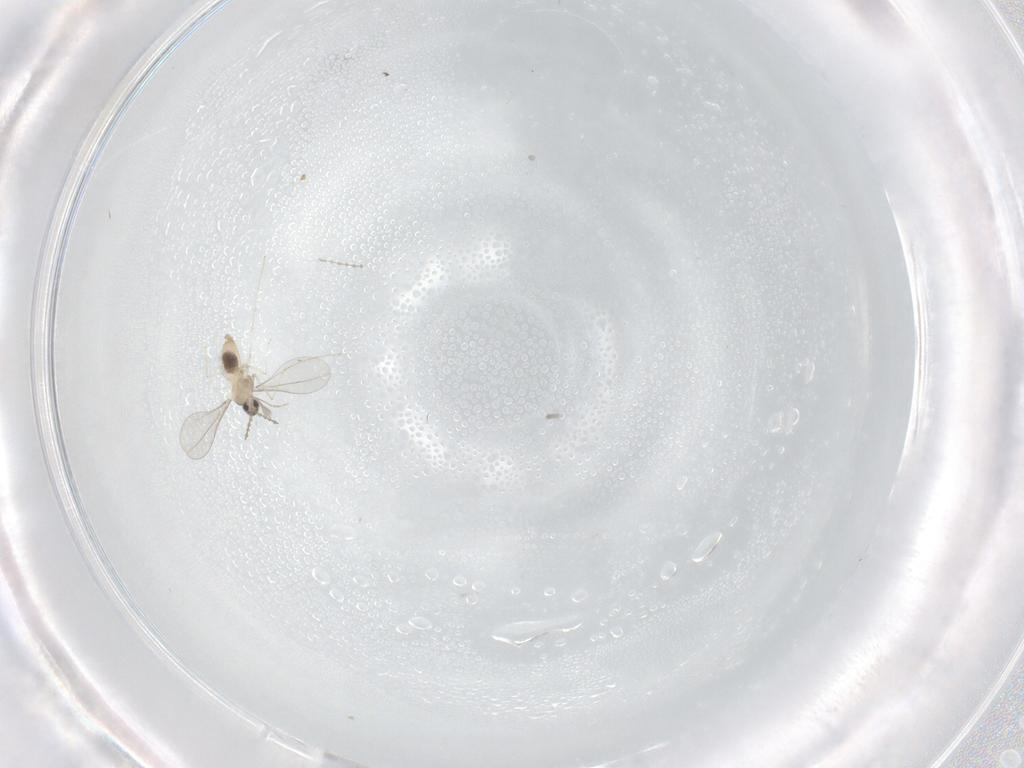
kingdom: Animalia
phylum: Arthropoda
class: Insecta
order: Diptera
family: Cecidomyiidae
